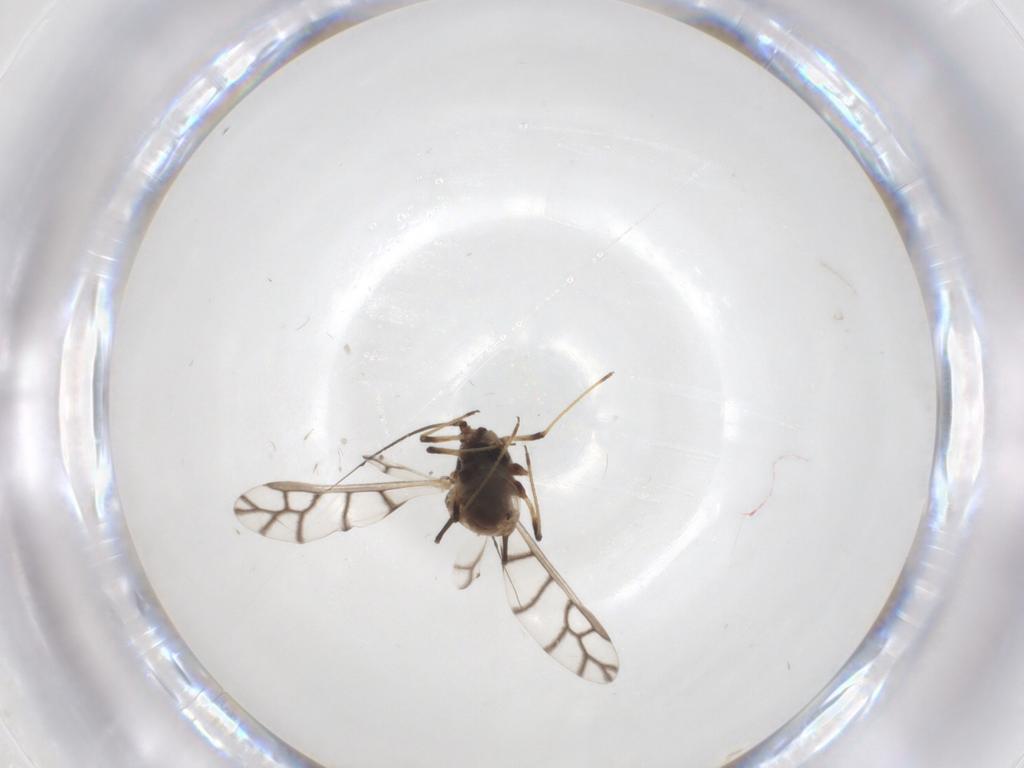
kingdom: Animalia
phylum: Arthropoda
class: Insecta
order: Hemiptera
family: Aphididae
